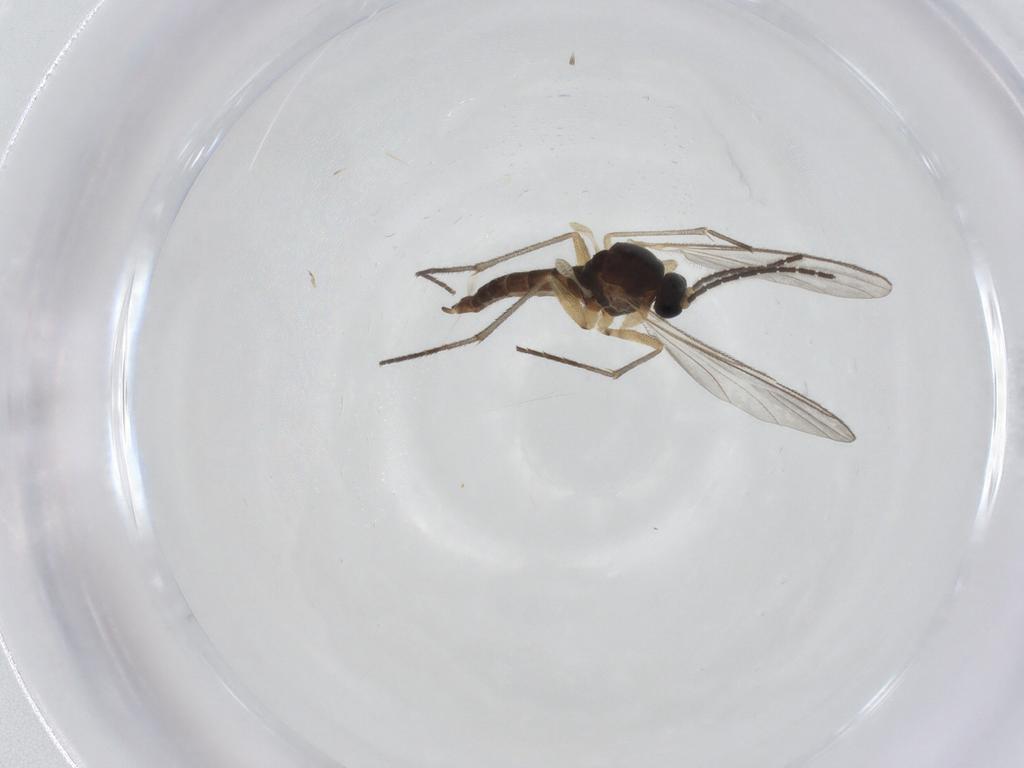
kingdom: Animalia
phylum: Arthropoda
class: Insecta
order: Diptera
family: Sciaridae
